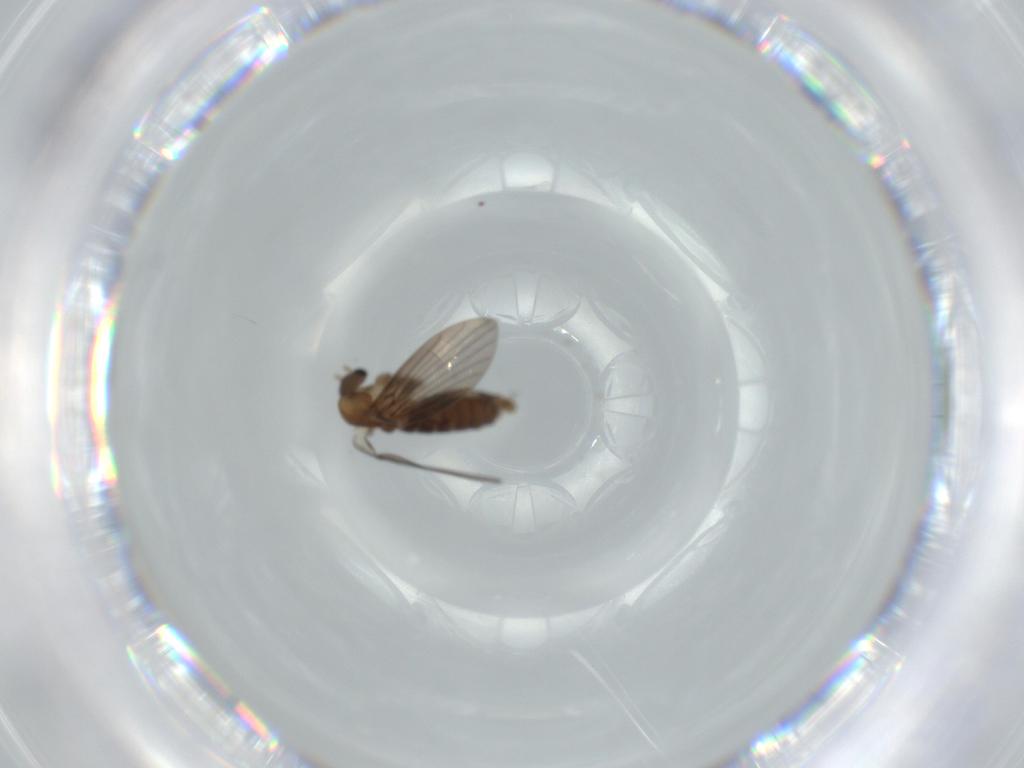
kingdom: Animalia
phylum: Arthropoda
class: Insecta
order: Diptera
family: Psychodidae
